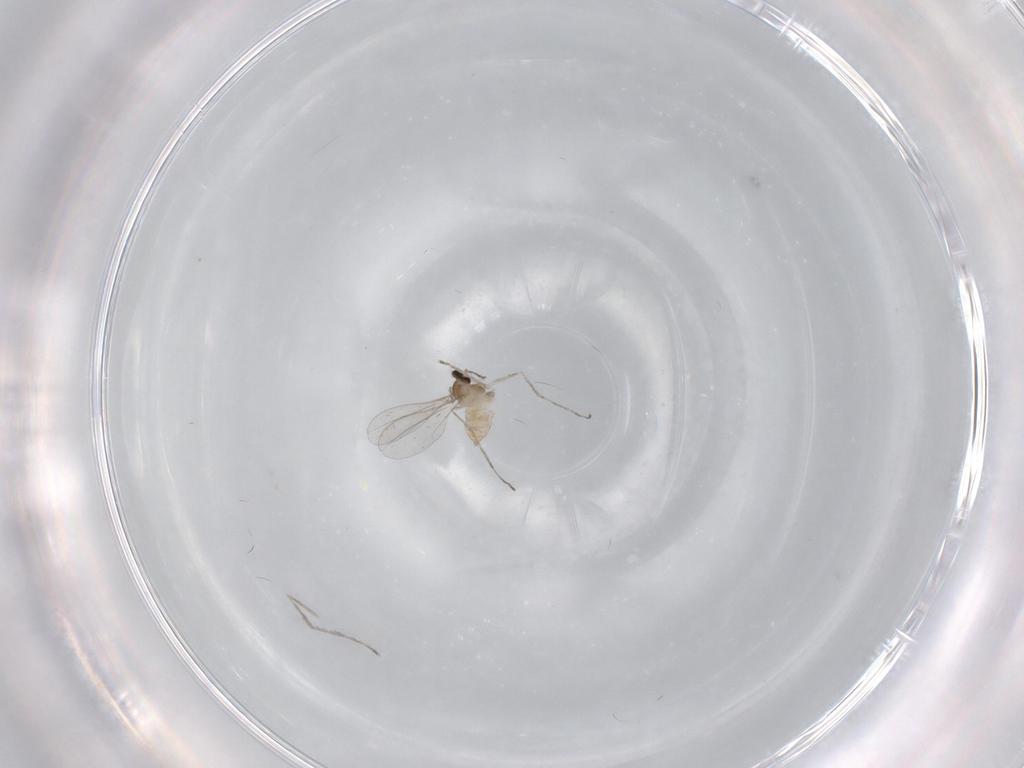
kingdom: Animalia
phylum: Arthropoda
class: Insecta
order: Diptera
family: Cecidomyiidae
